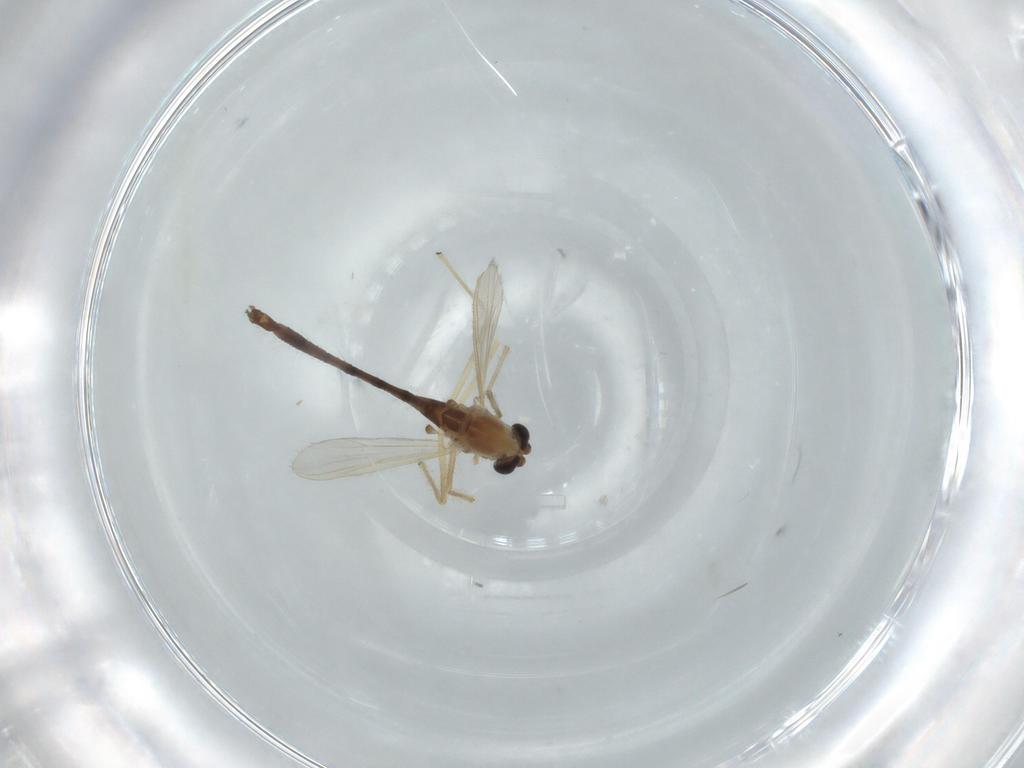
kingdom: Animalia
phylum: Arthropoda
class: Insecta
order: Diptera
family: Chironomidae
